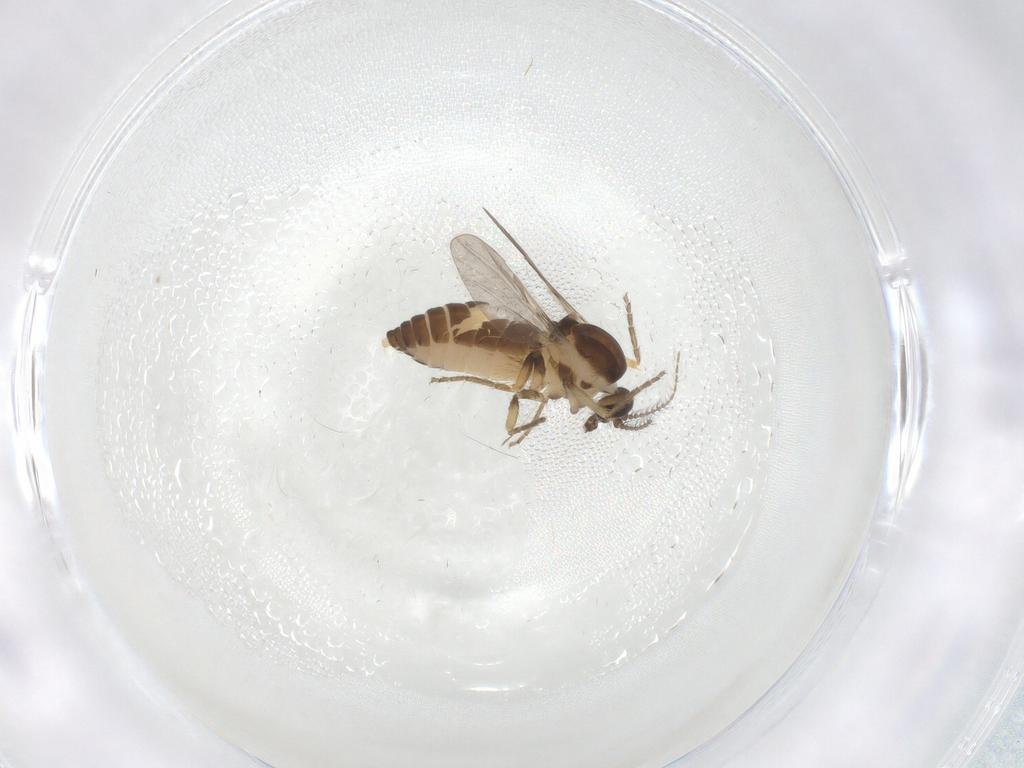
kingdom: Animalia
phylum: Arthropoda
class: Insecta
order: Diptera
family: Ceratopogonidae
